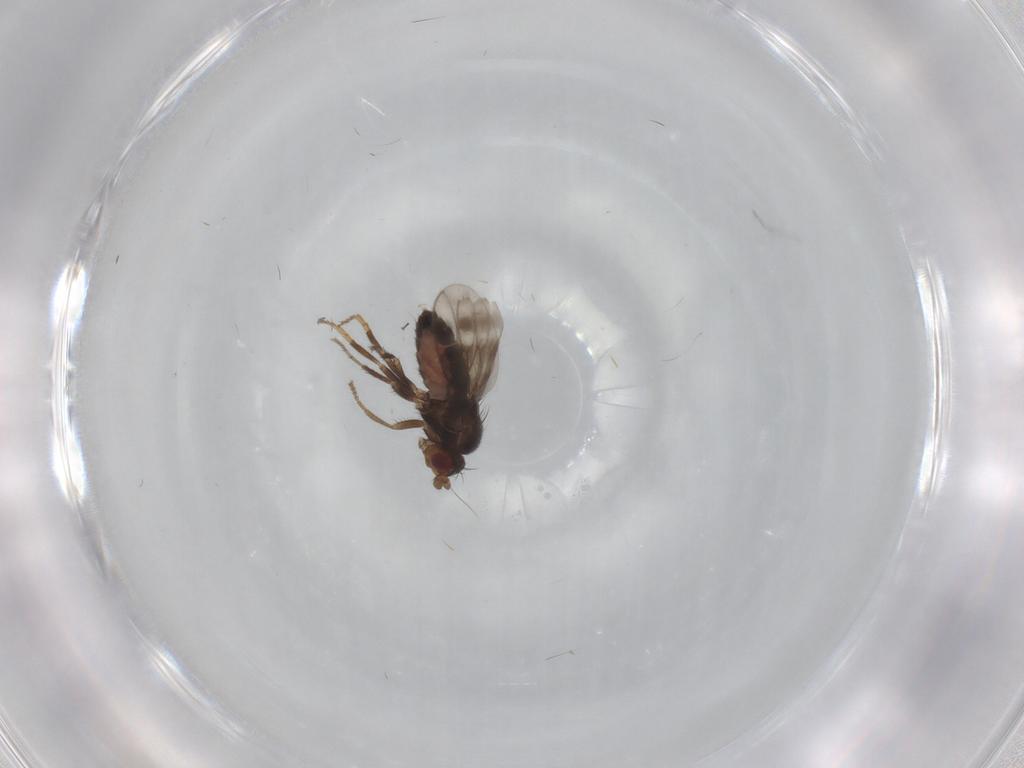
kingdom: Animalia
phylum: Arthropoda
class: Insecta
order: Diptera
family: Sphaeroceridae
